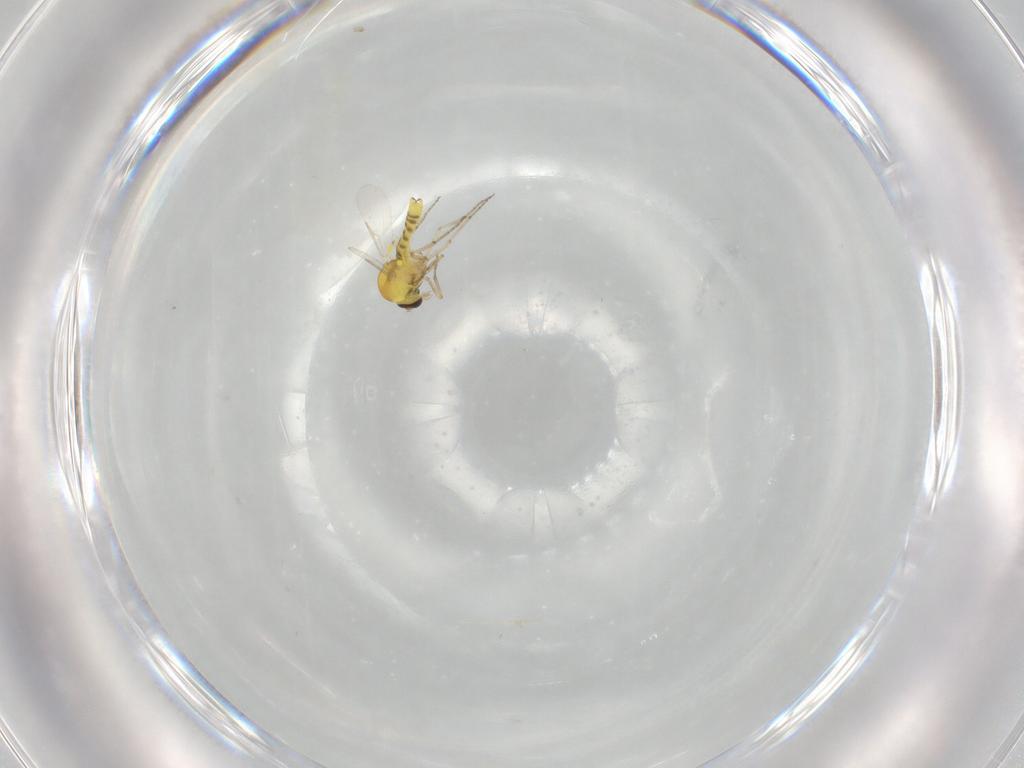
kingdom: Animalia
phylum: Arthropoda
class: Insecta
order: Diptera
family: Ceratopogonidae
